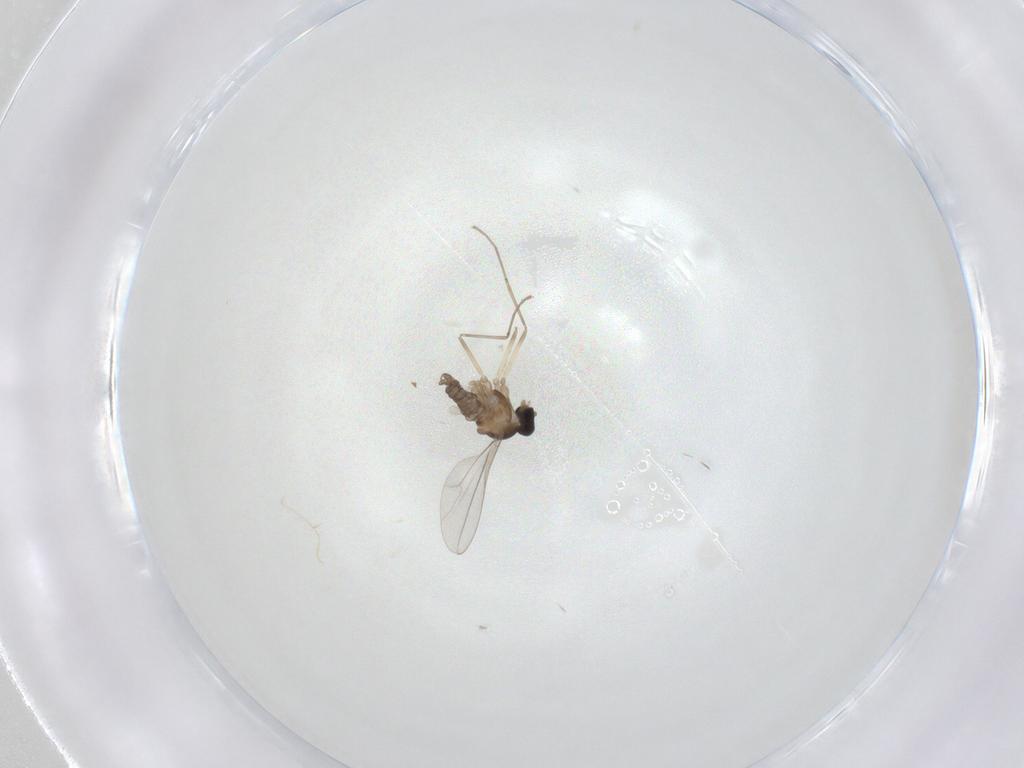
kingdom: Animalia
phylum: Arthropoda
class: Insecta
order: Diptera
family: Cecidomyiidae
